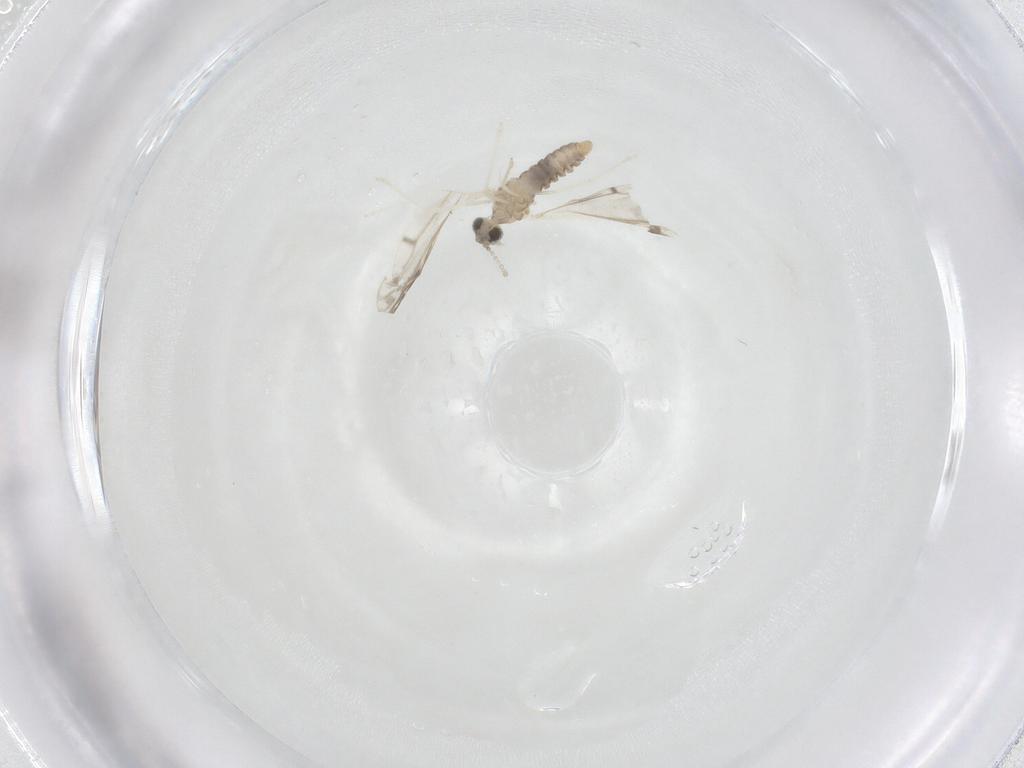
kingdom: Animalia
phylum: Arthropoda
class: Insecta
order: Diptera
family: Cecidomyiidae
